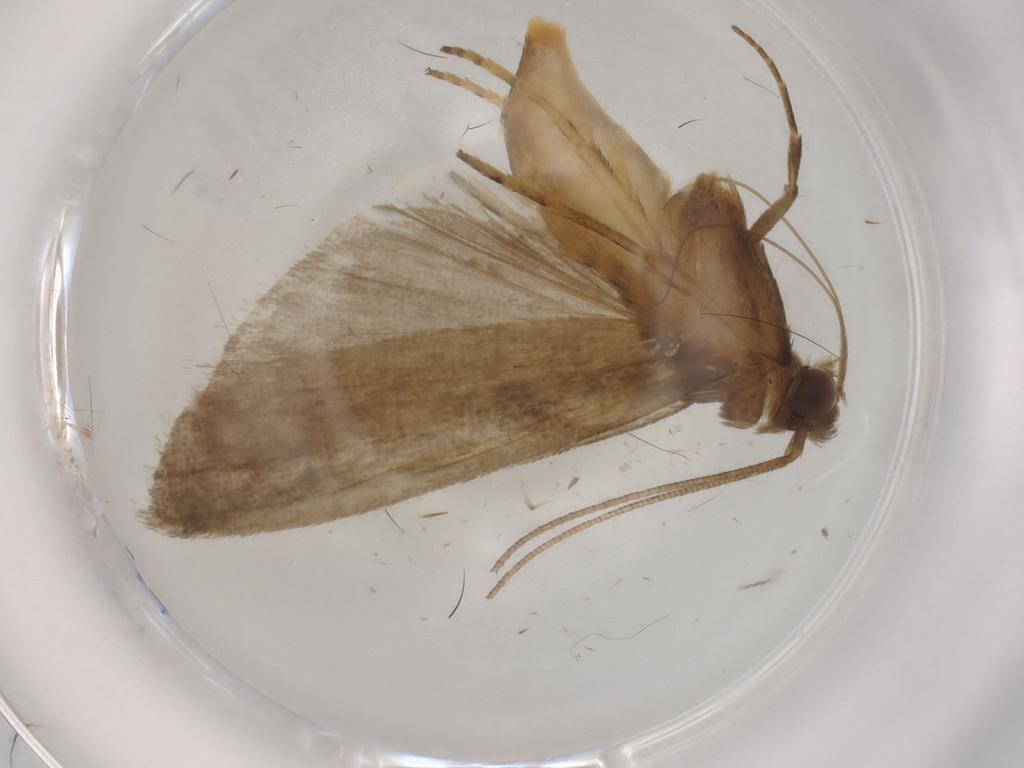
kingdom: Animalia
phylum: Arthropoda
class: Insecta
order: Lepidoptera
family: Noctuidae
